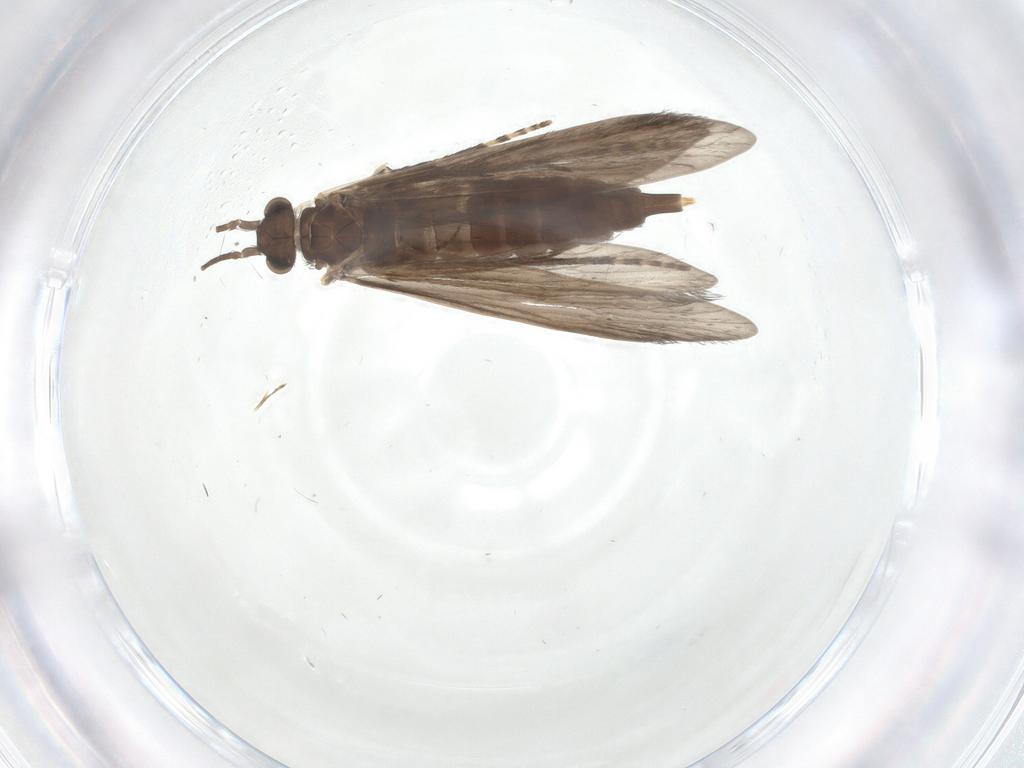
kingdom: Animalia
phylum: Arthropoda
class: Insecta
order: Trichoptera
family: Xiphocentronidae
